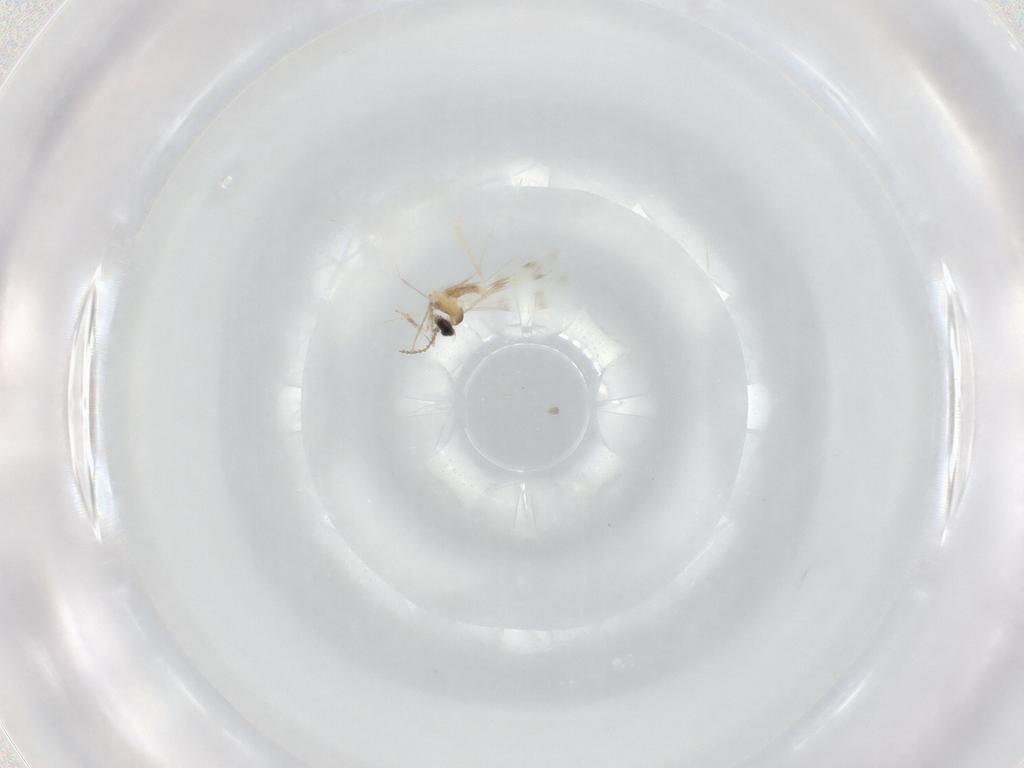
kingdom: Animalia
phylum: Arthropoda
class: Insecta
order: Diptera
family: Cecidomyiidae
